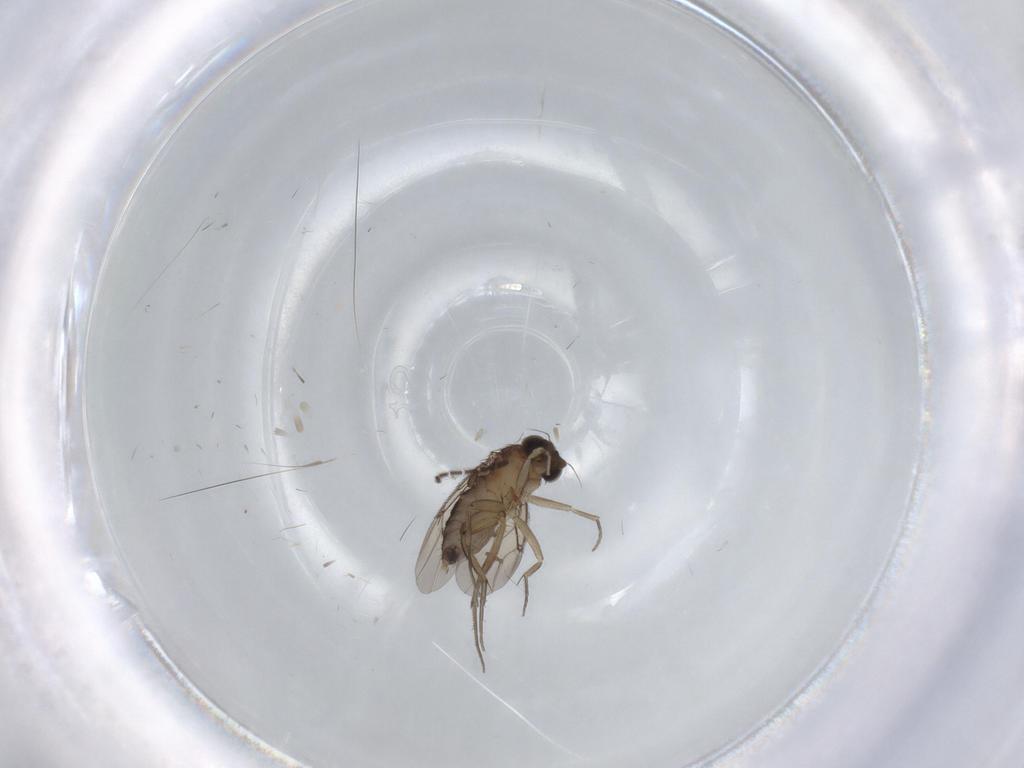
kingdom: Animalia
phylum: Arthropoda
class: Insecta
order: Diptera
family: Phoridae
